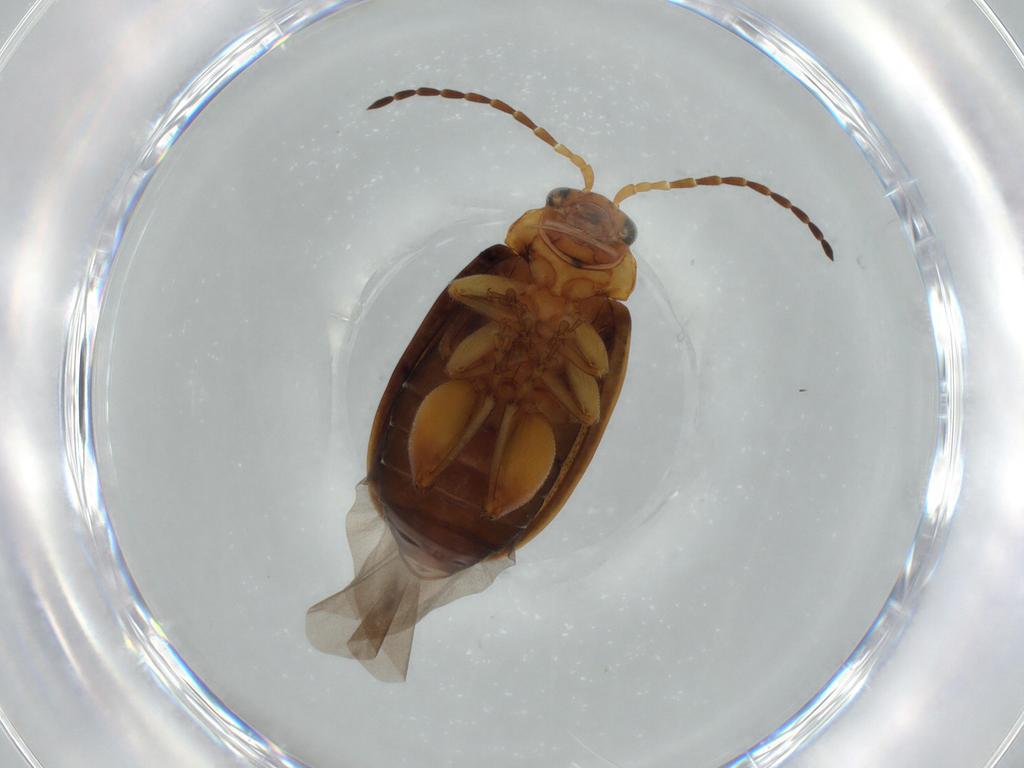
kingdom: Animalia
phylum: Arthropoda
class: Insecta
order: Coleoptera
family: Chrysomelidae
